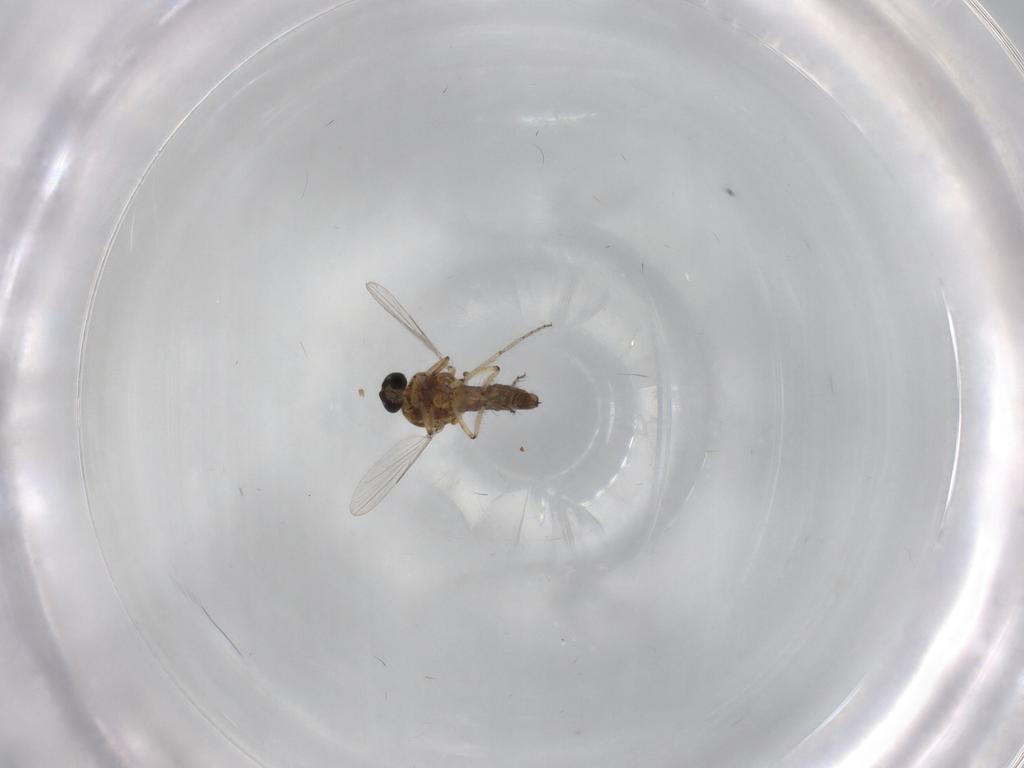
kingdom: Animalia
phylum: Arthropoda
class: Insecta
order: Diptera
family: Ceratopogonidae
